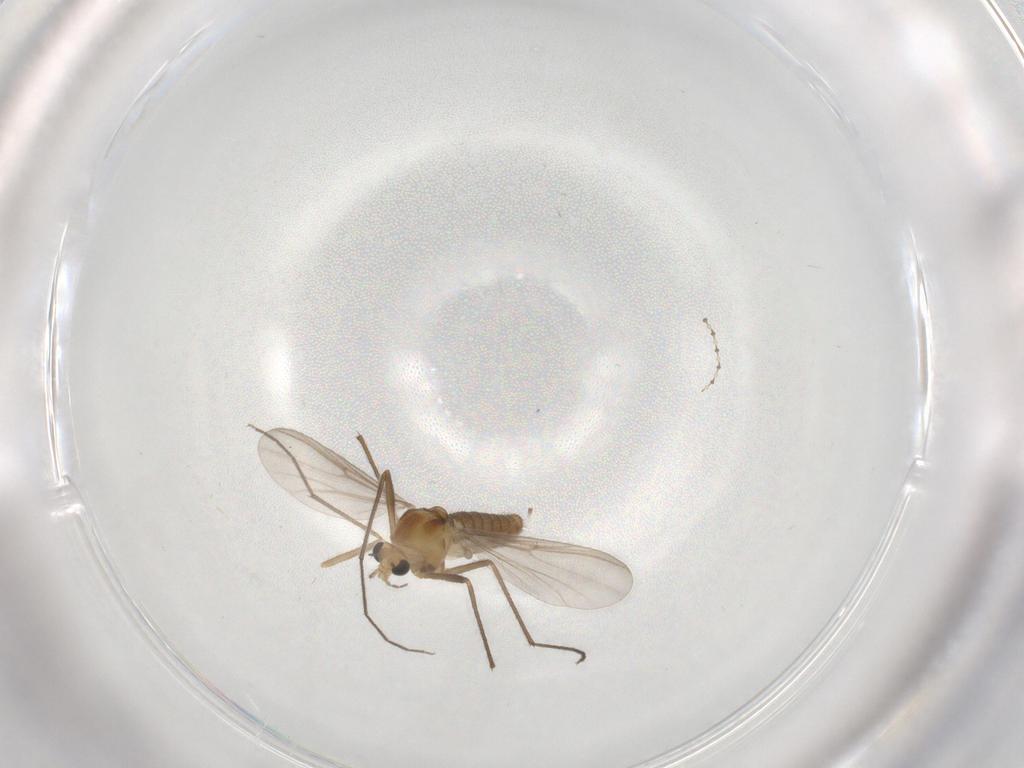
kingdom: Animalia
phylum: Arthropoda
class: Insecta
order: Diptera
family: Chironomidae
